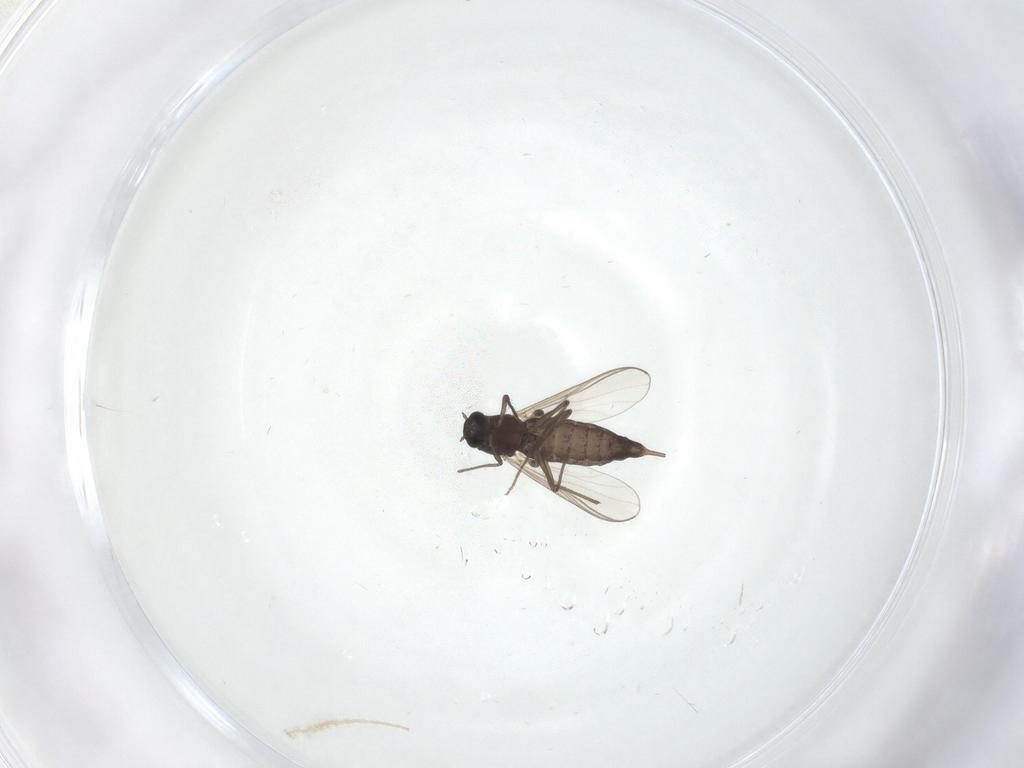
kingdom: Animalia
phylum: Arthropoda
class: Insecta
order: Diptera
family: Chironomidae
